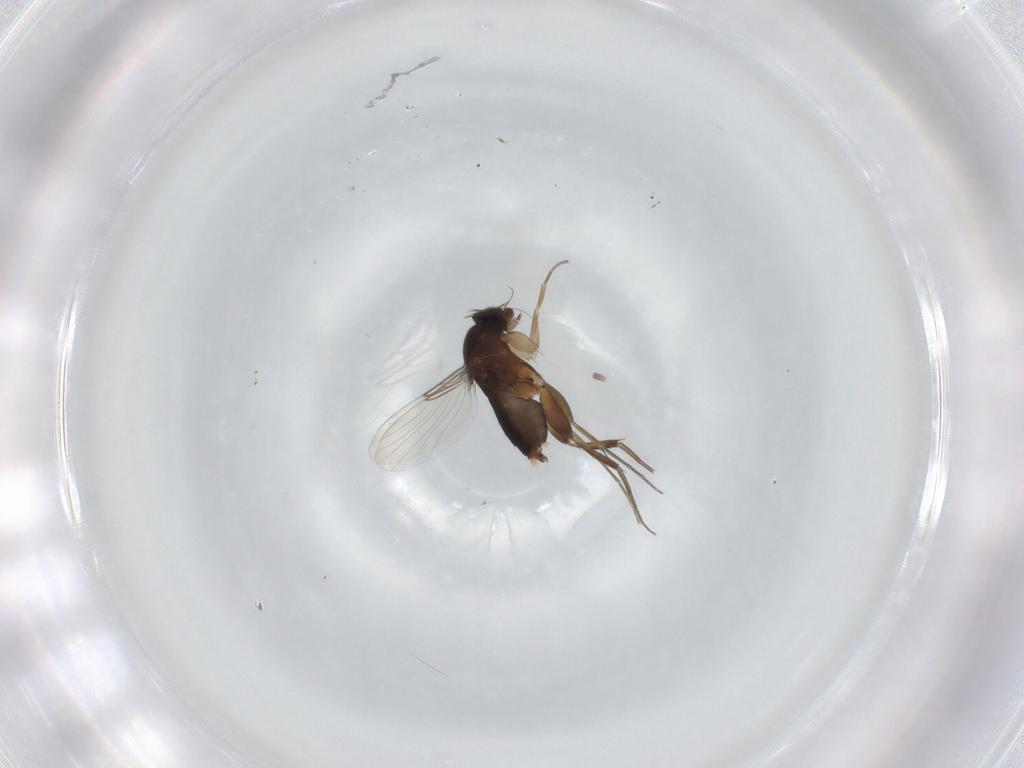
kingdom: Animalia
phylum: Arthropoda
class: Insecta
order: Diptera
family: Phoridae
